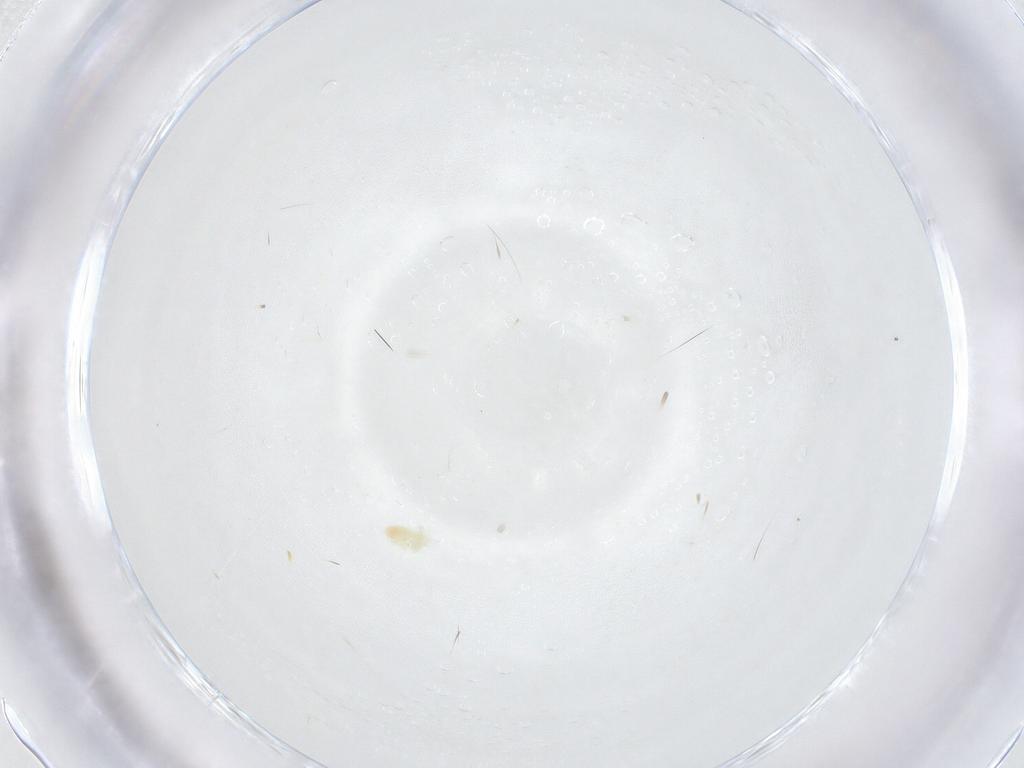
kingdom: Animalia
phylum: Arthropoda
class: Arachnida
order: Trombidiformes
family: Eupodidae
